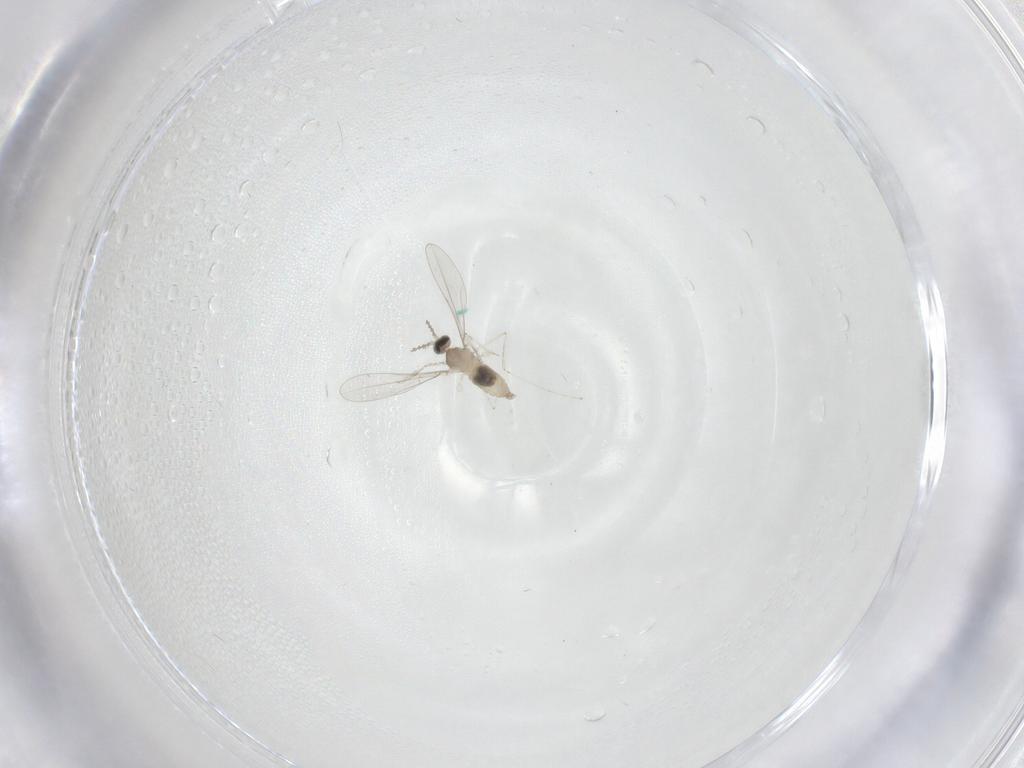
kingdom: Animalia
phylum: Arthropoda
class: Insecta
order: Diptera
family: Cecidomyiidae
